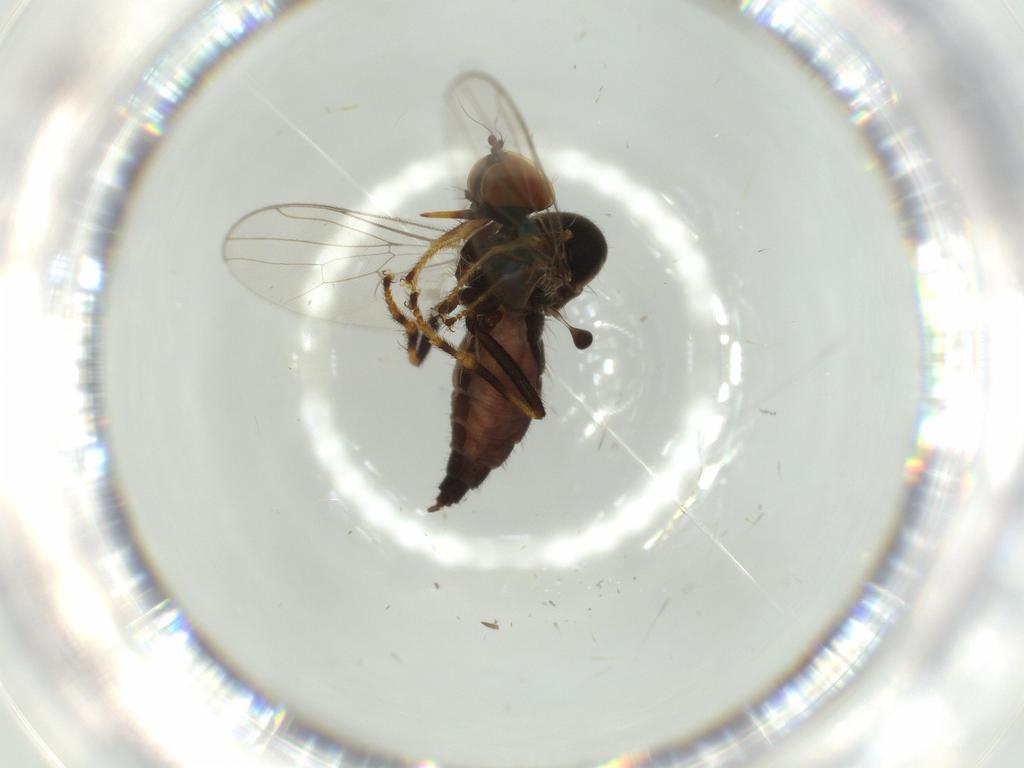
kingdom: Animalia
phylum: Arthropoda
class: Insecta
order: Diptera
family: Hybotidae
